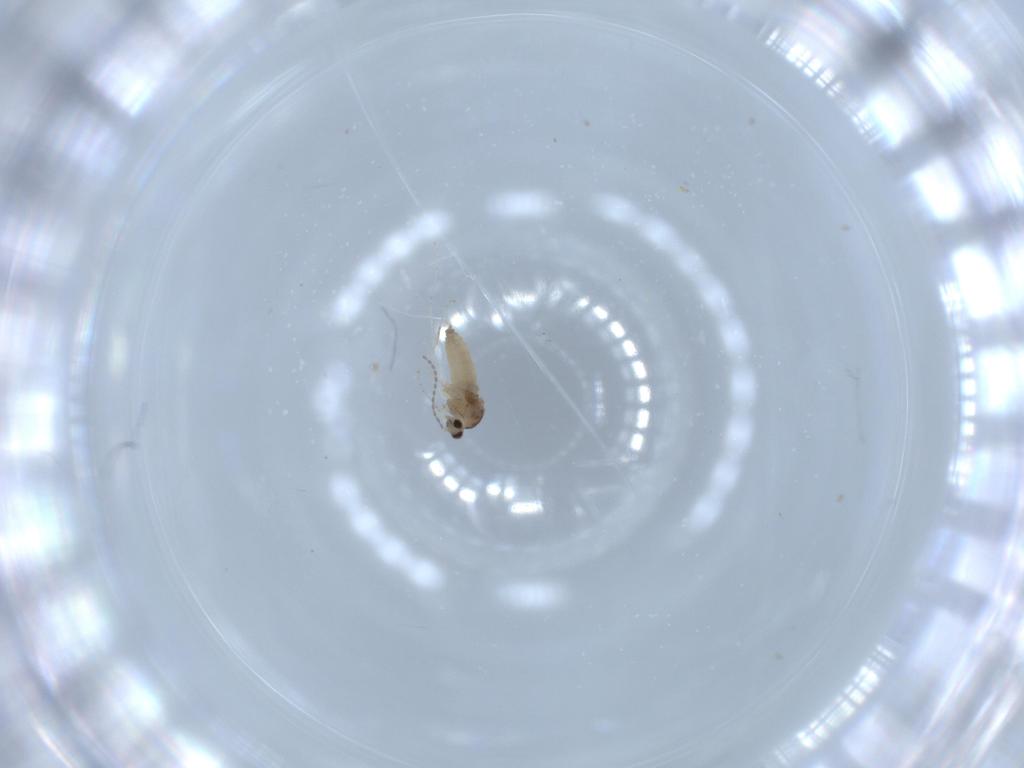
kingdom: Animalia
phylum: Arthropoda
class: Insecta
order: Diptera
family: Cecidomyiidae
